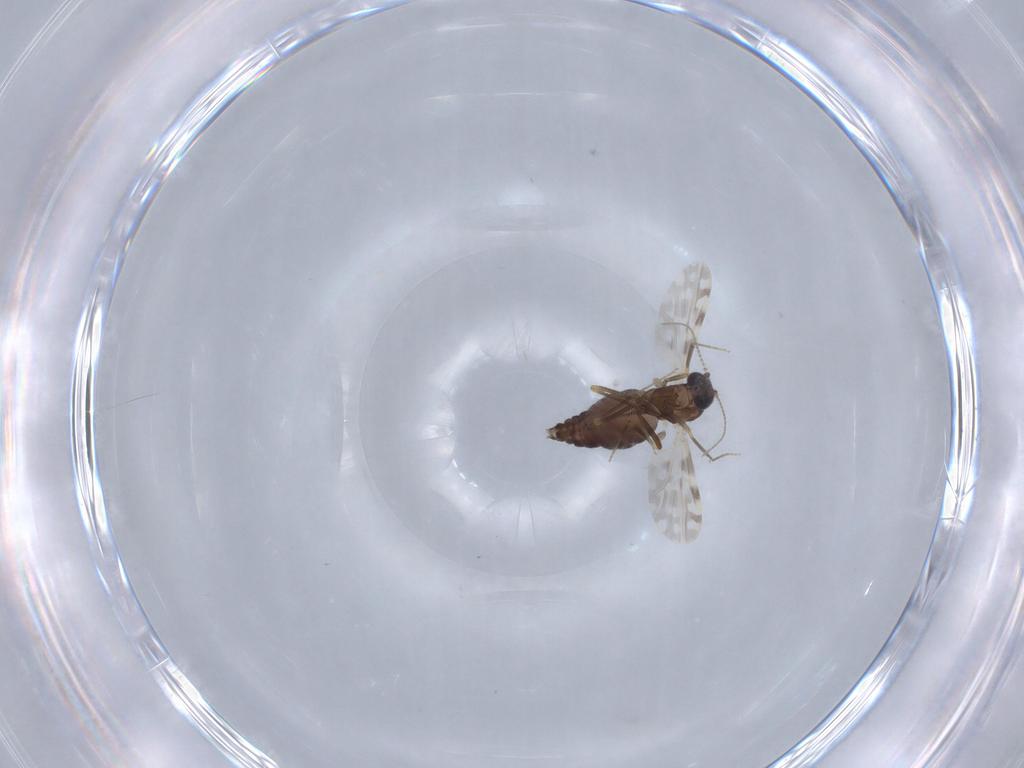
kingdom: Animalia
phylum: Arthropoda
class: Insecta
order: Diptera
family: Ceratopogonidae
